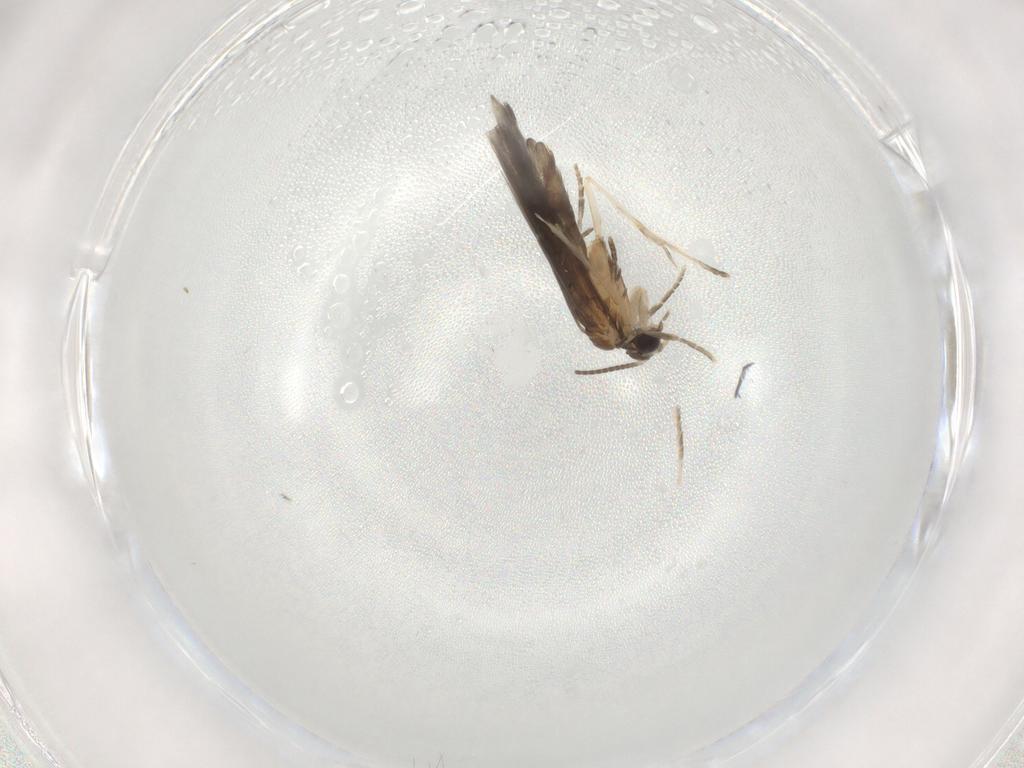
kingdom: Animalia
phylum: Arthropoda
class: Insecta
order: Trichoptera
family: Hydroptilidae
